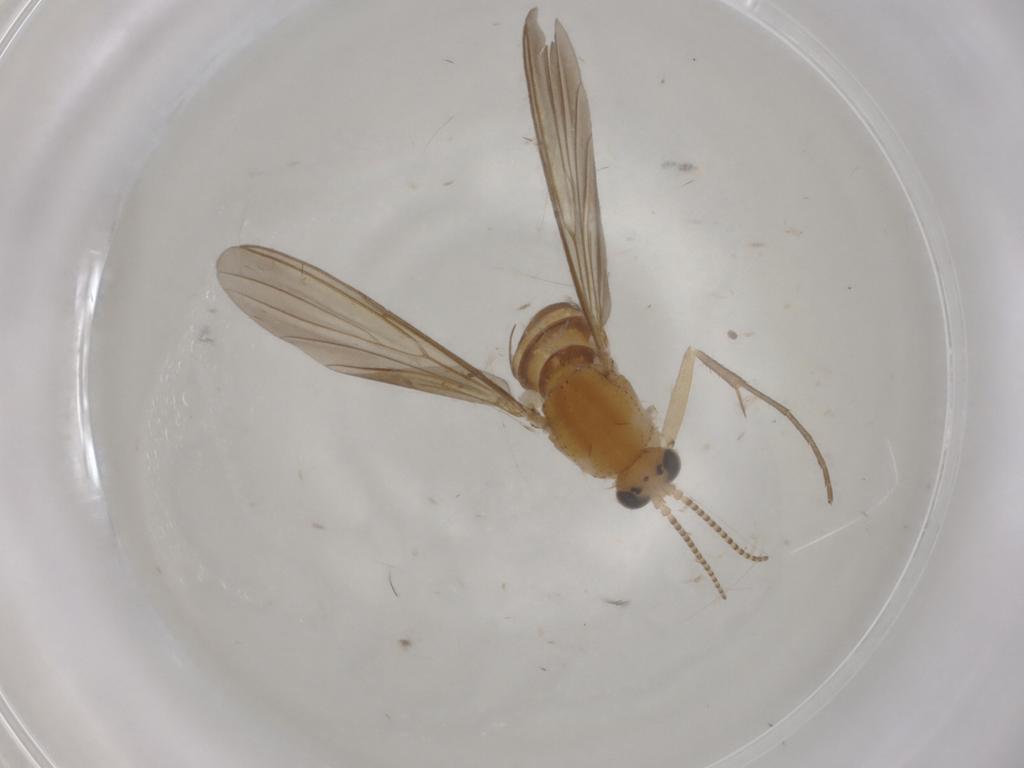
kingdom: Animalia
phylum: Arthropoda
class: Insecta
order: Diptera
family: Mycetophilidae
